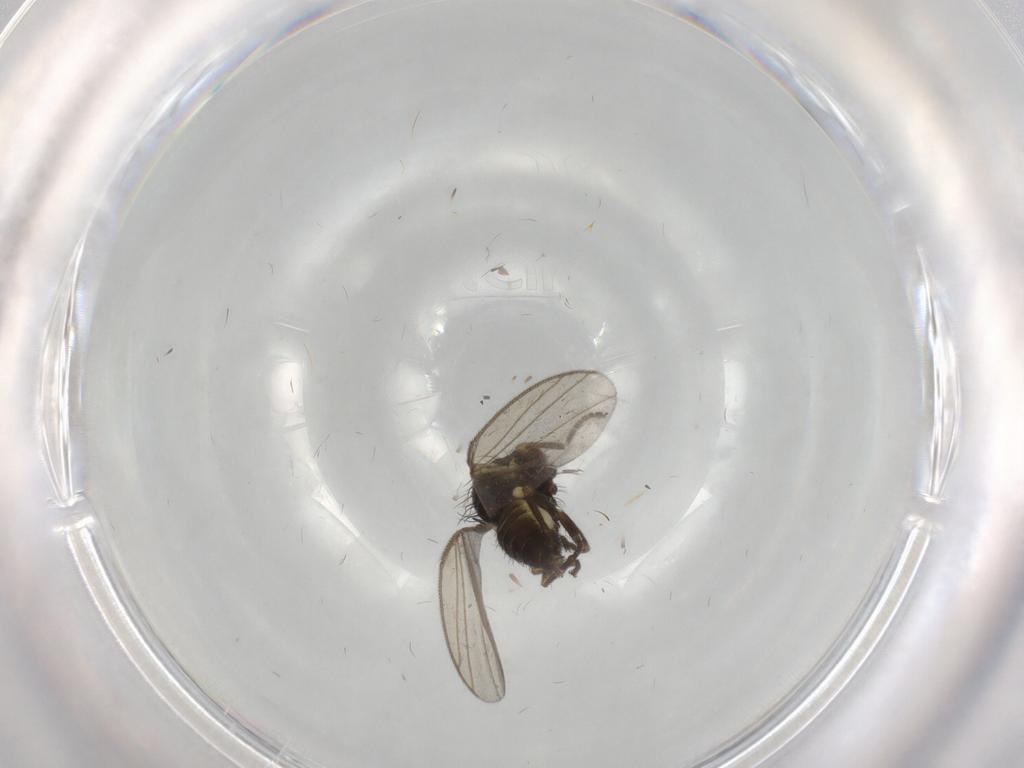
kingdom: Animalia
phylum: Arthropoda
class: Insecta
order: Diptera
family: Agromyzidae
